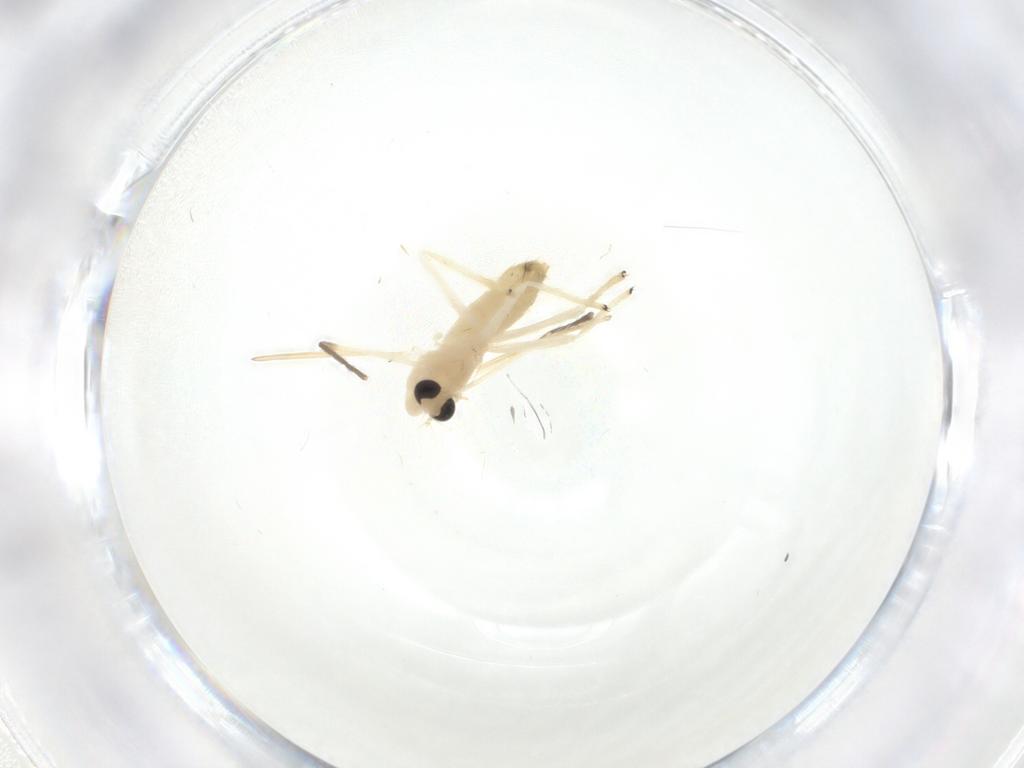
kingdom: Animalia
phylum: Arthropoda
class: Insecta
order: Diptera
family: Chironomidae
